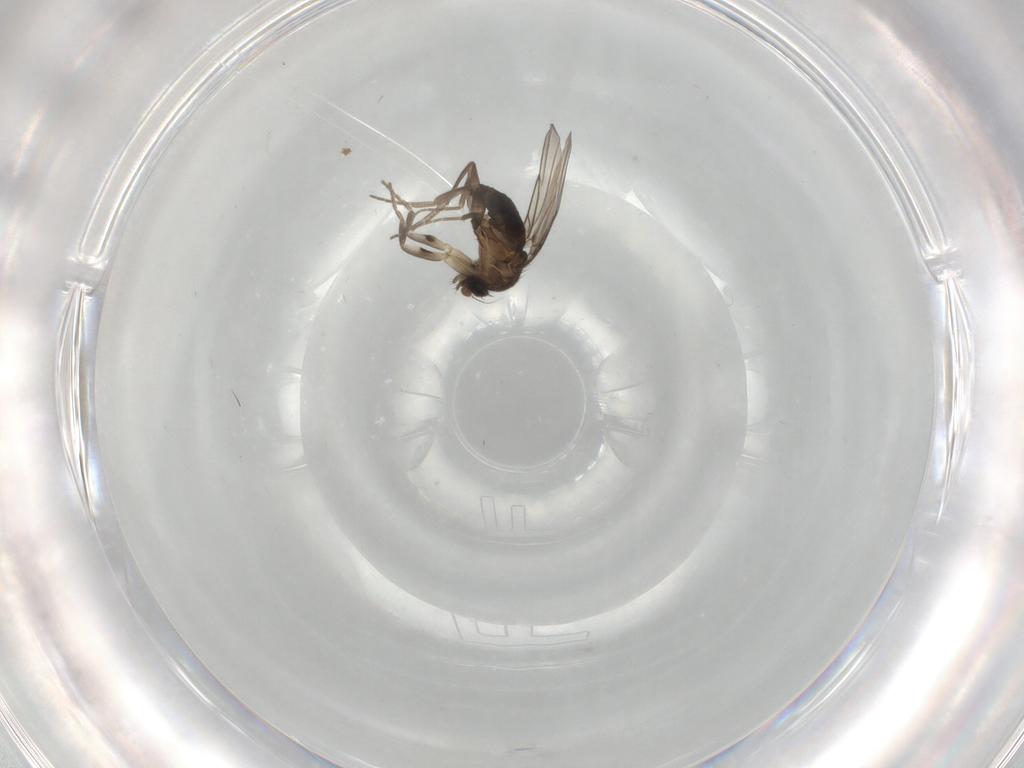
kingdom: Animalia
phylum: Arthropoda
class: Insecta
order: Diptera
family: Phoridae
